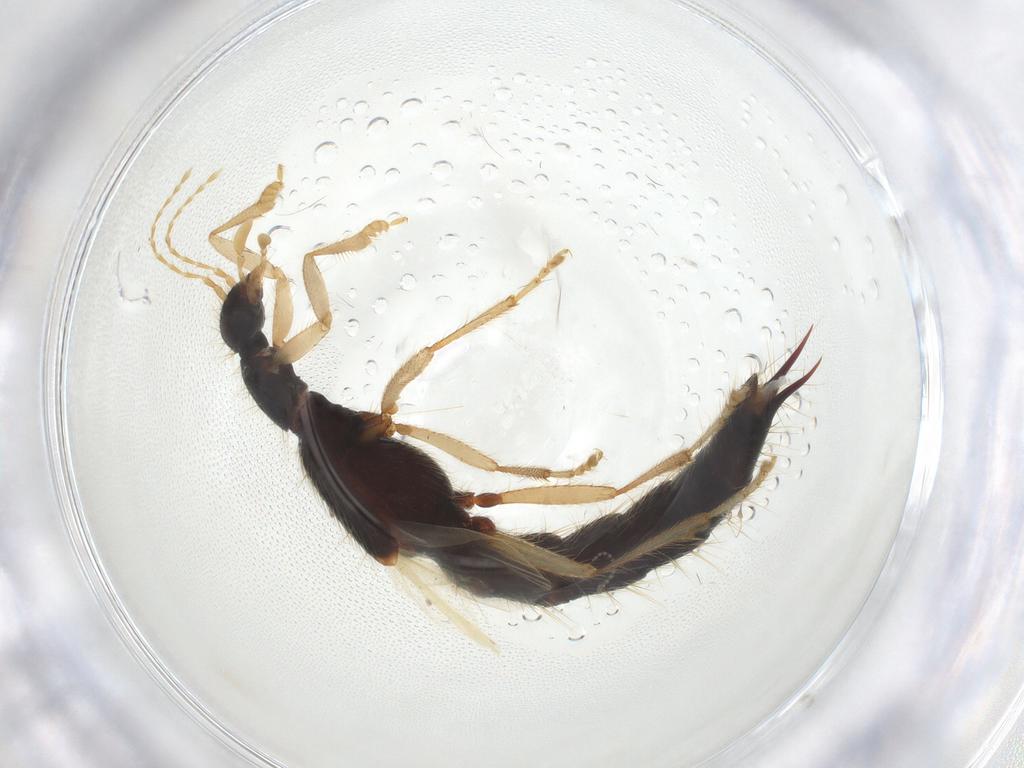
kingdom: Animalia
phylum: Arthropoda
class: Insecta
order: Coleoptera
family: Staphylinidae
